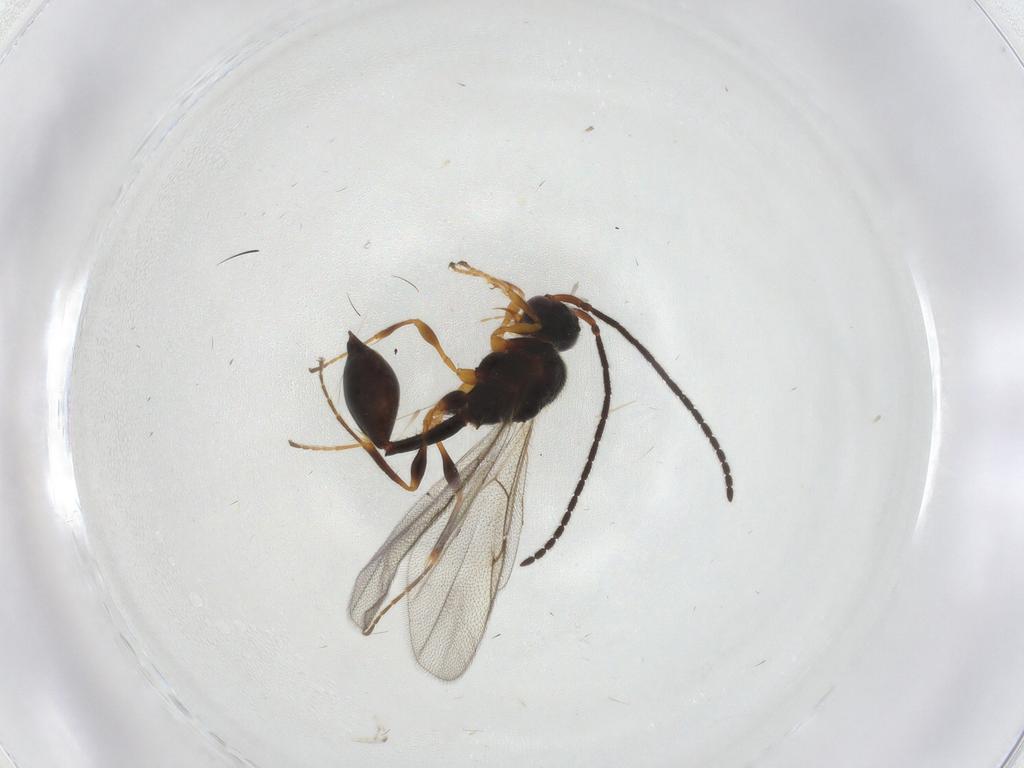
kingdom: Animalia
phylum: Arthropoda
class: Insecta
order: Hymenoptera
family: Diapriidae
